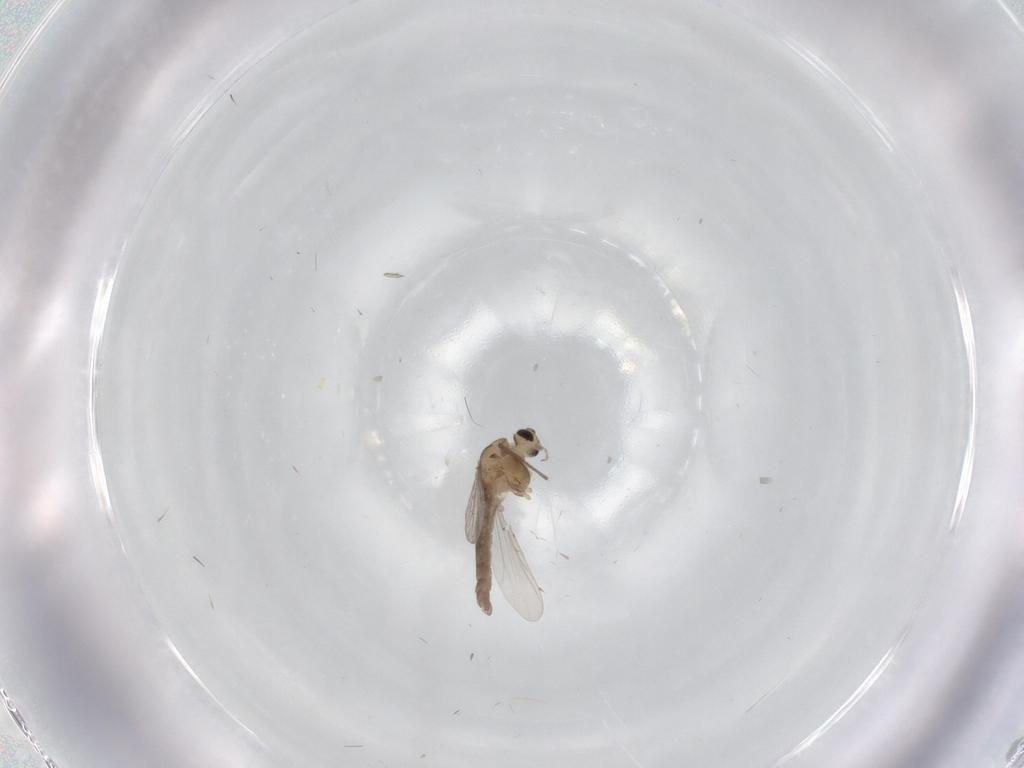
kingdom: Animalia
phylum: Arthropoda
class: Insecta
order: Diptera
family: Chironomidae
